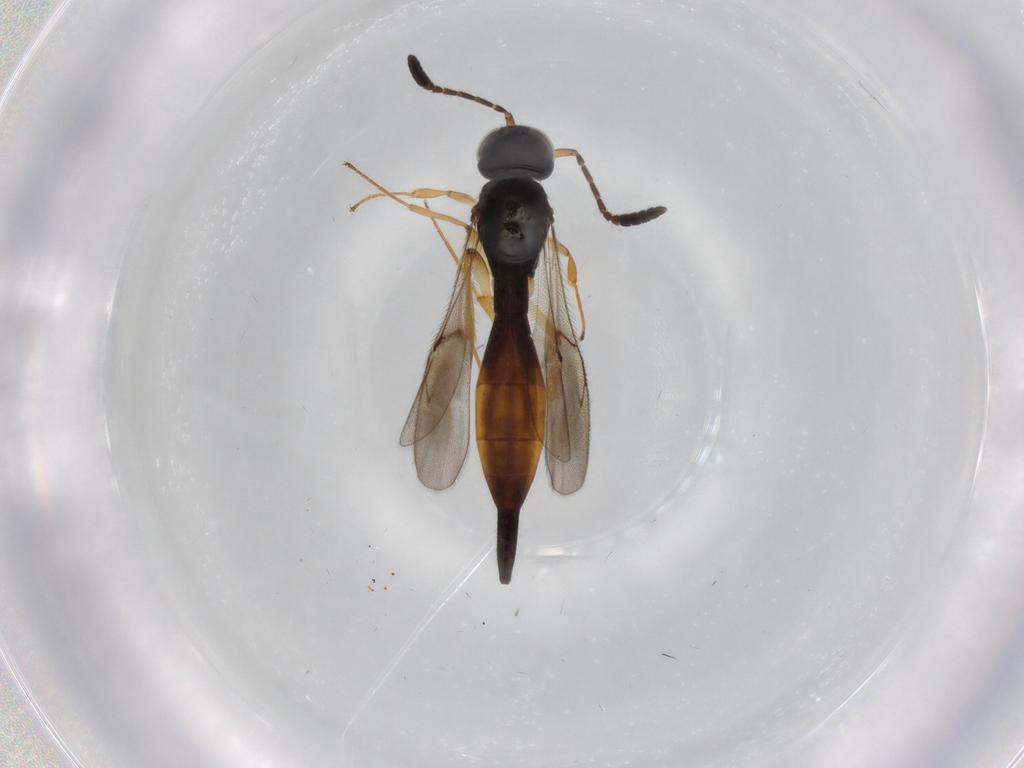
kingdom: Animalia
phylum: Arthropoda
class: Insecta
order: Hymenoptera
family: Scelionidae
